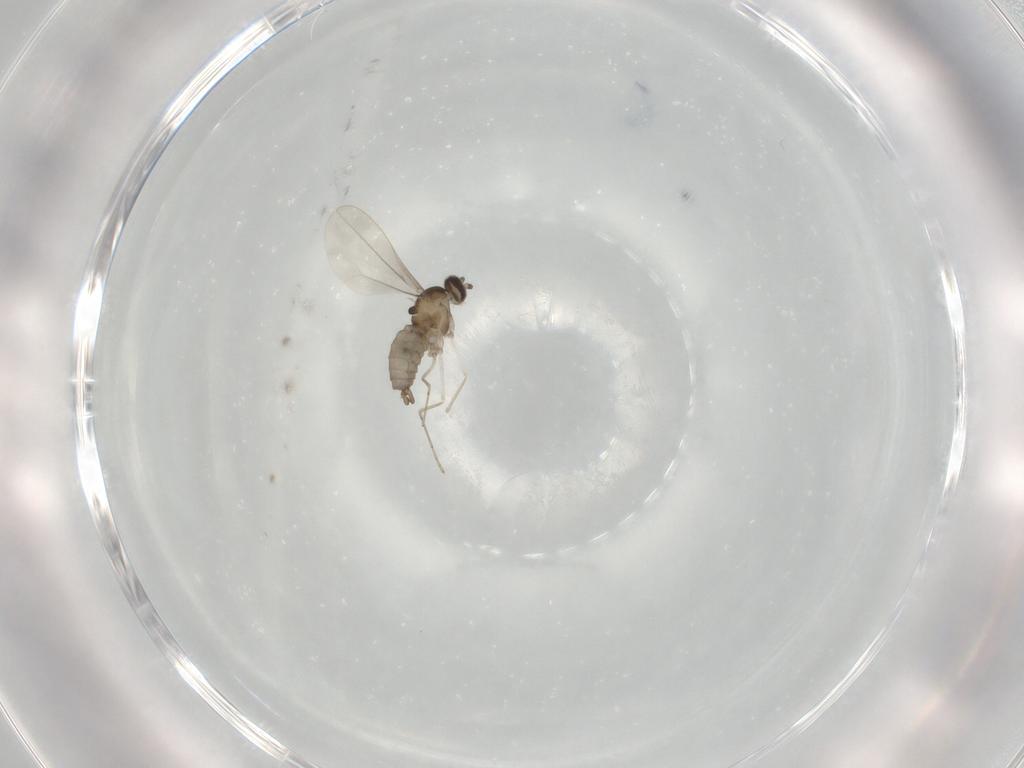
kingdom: Animalia
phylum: Arthropoda
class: Insecta
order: Diptera
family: Cecidomyiidae
